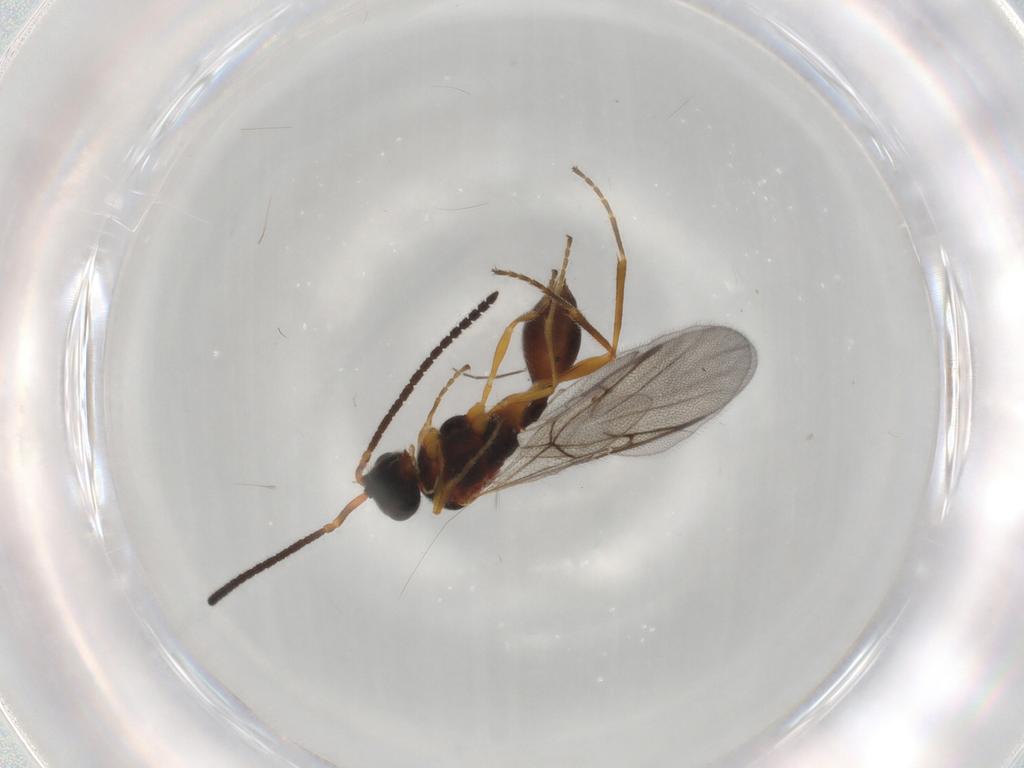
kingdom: Animalia
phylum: Arthropoda
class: Insecta
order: Hymenoptera
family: Diapriidae
